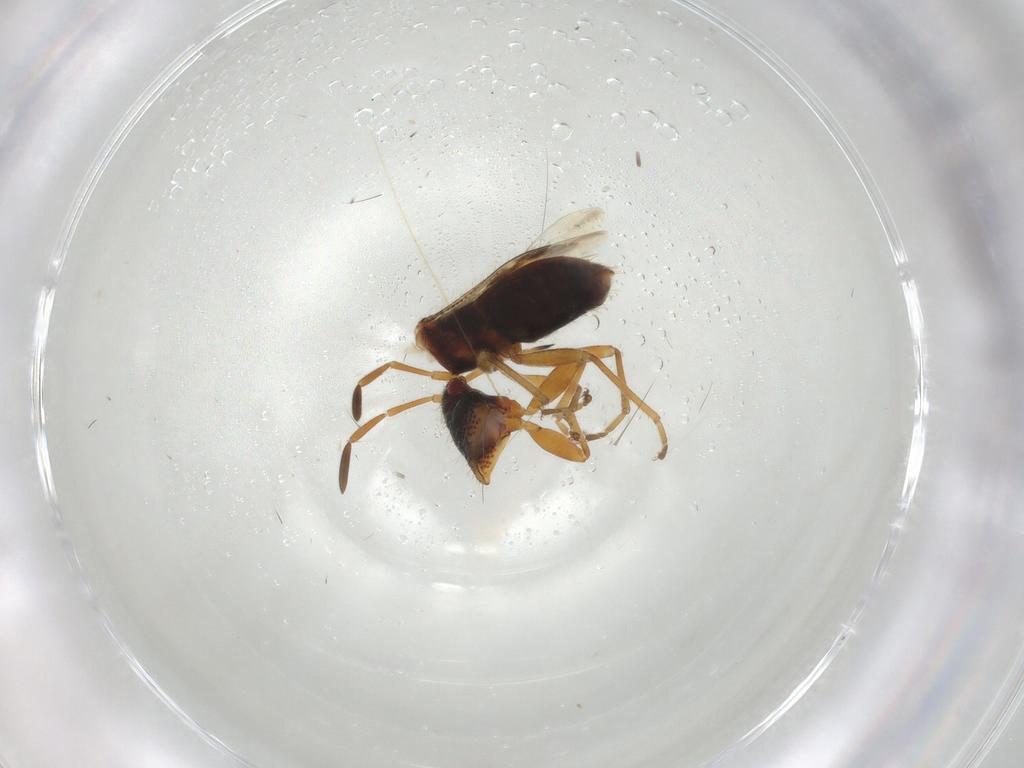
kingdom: Animalia
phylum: Arthropoda
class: Insecta
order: Hemiptera
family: Rhyparochromidae
